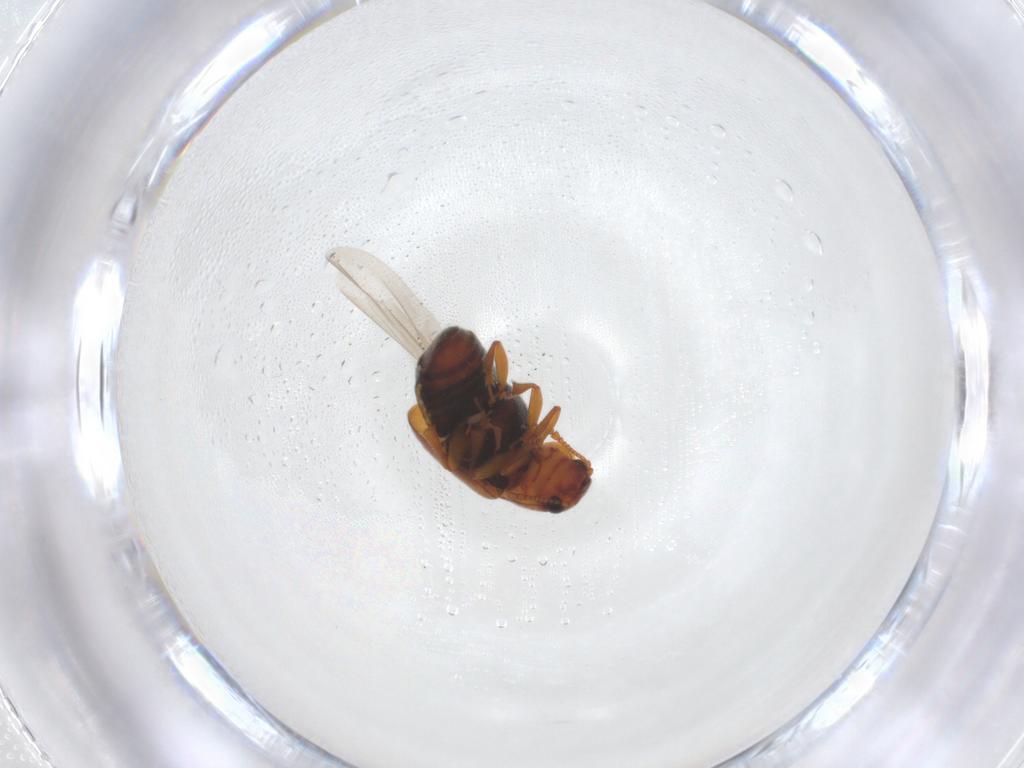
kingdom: Animalia
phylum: Arthropoda
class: Insecta
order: Coleoptera
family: Kateretidae
